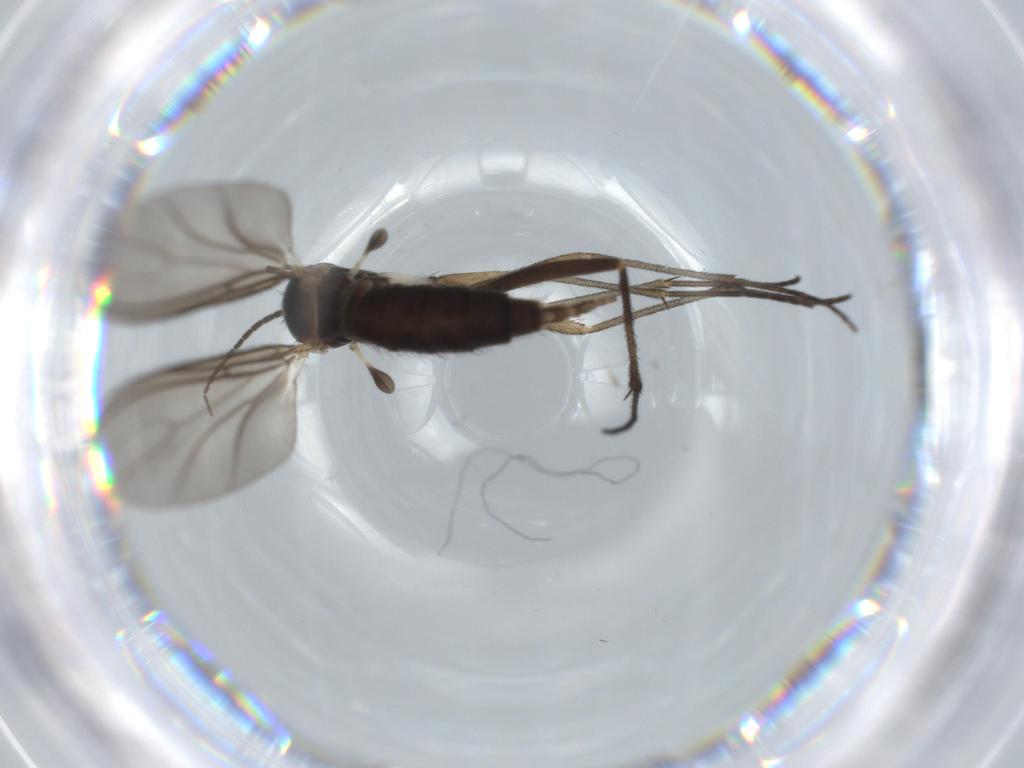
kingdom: Animalia
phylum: Arthropoda
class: Insecta
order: Diptera
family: Sciaridae
